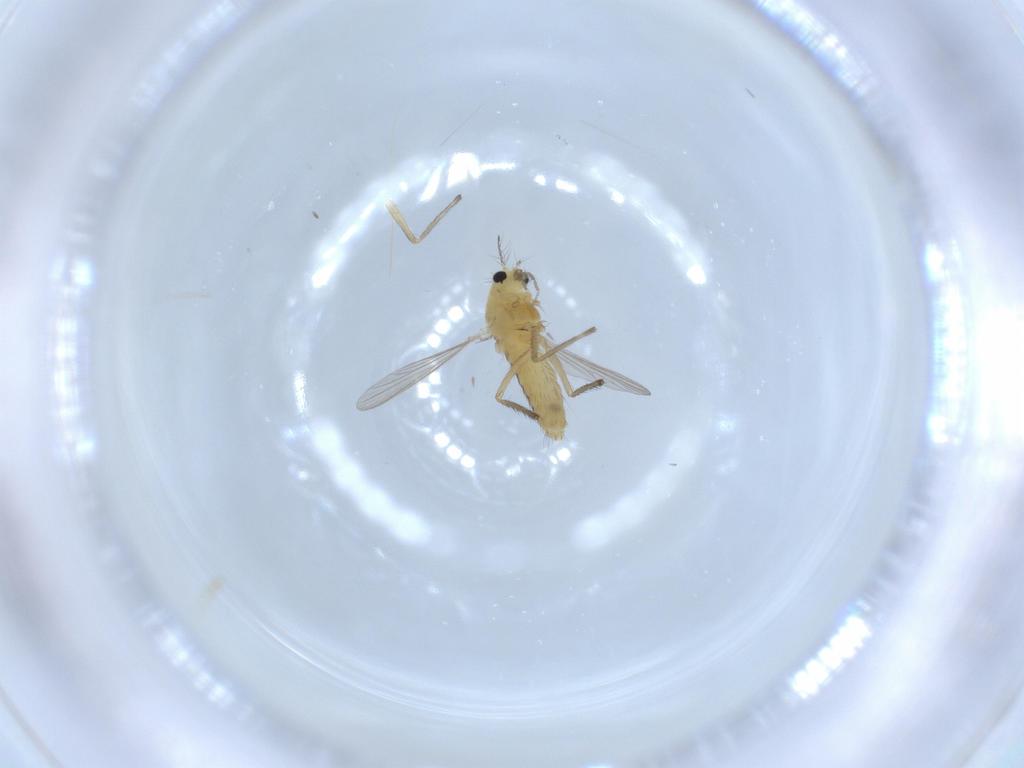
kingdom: Animalia
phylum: Arthropoda
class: Insecta
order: Diptera
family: Chironomidae
